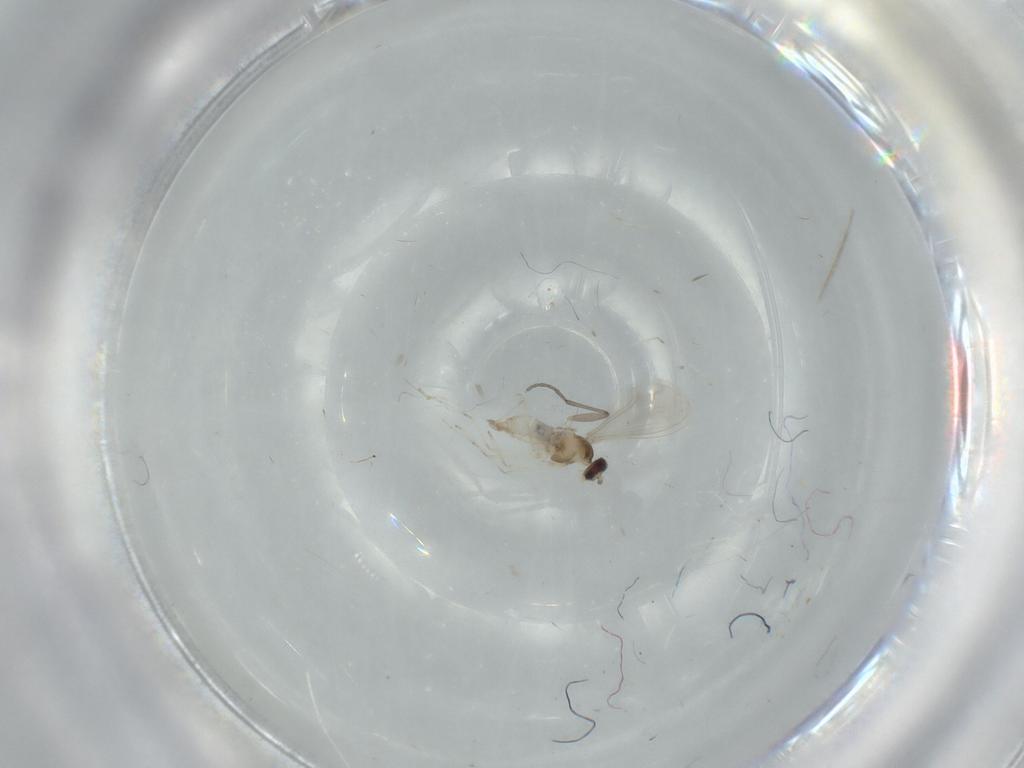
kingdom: Animalia
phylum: Arthropoda
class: Insecta
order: Diptera
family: Cecidomyiidae
